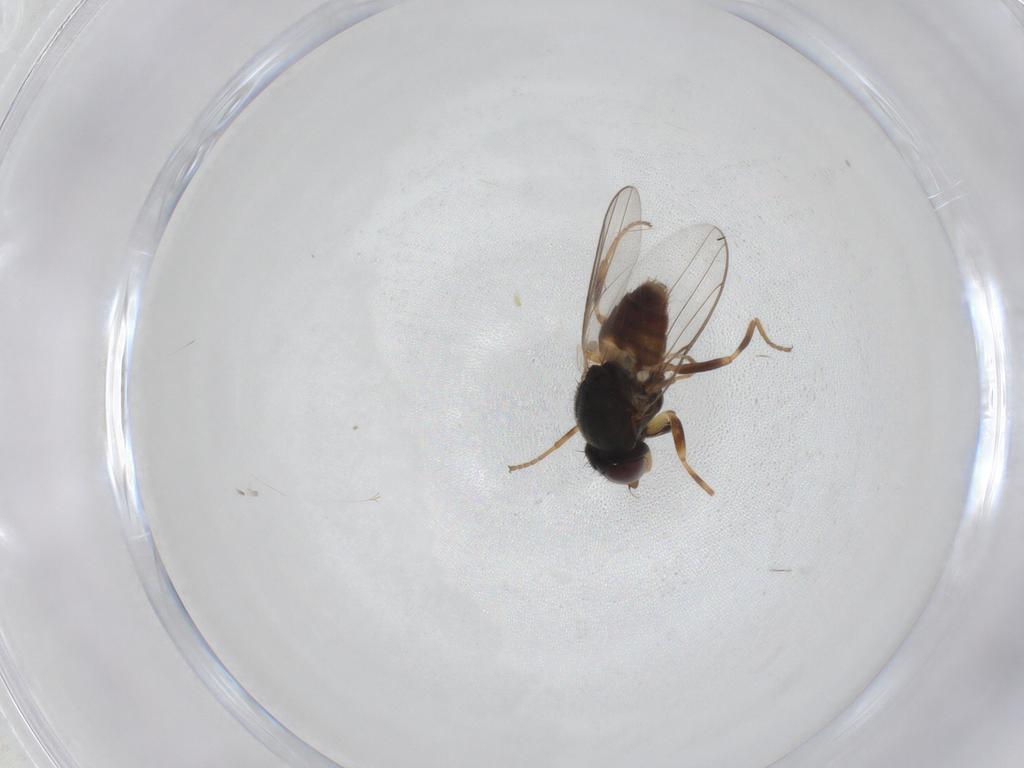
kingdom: Animalia
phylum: Arthropoda
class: Insecta
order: Diptera
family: Chloropidae
